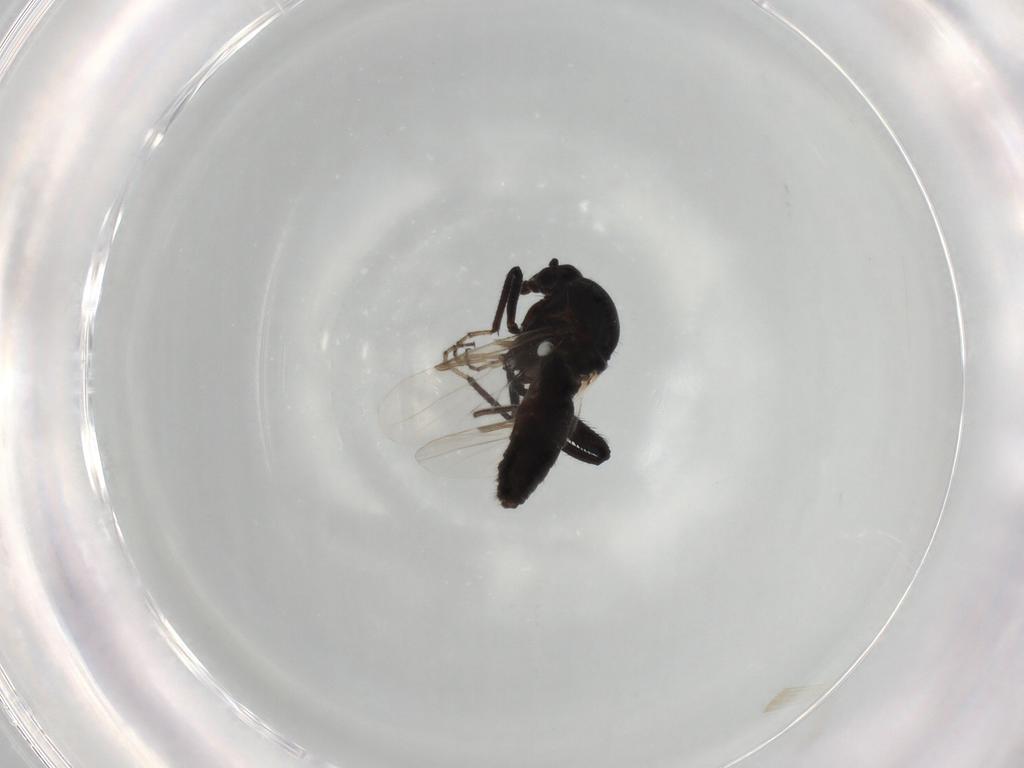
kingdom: Animalia
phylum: Arthropoda
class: Insecta
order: Diptera
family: Ceratopogonidae
